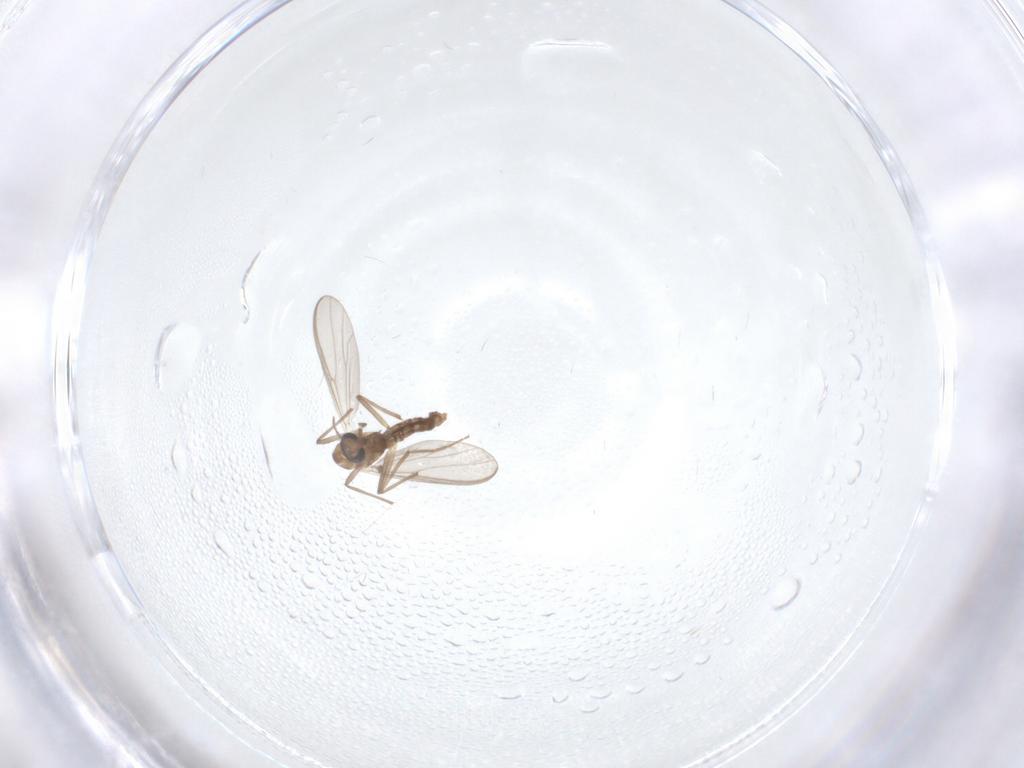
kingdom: Animalia
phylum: Arthropoda
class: Insecta
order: Diptera
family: Chironomidae
